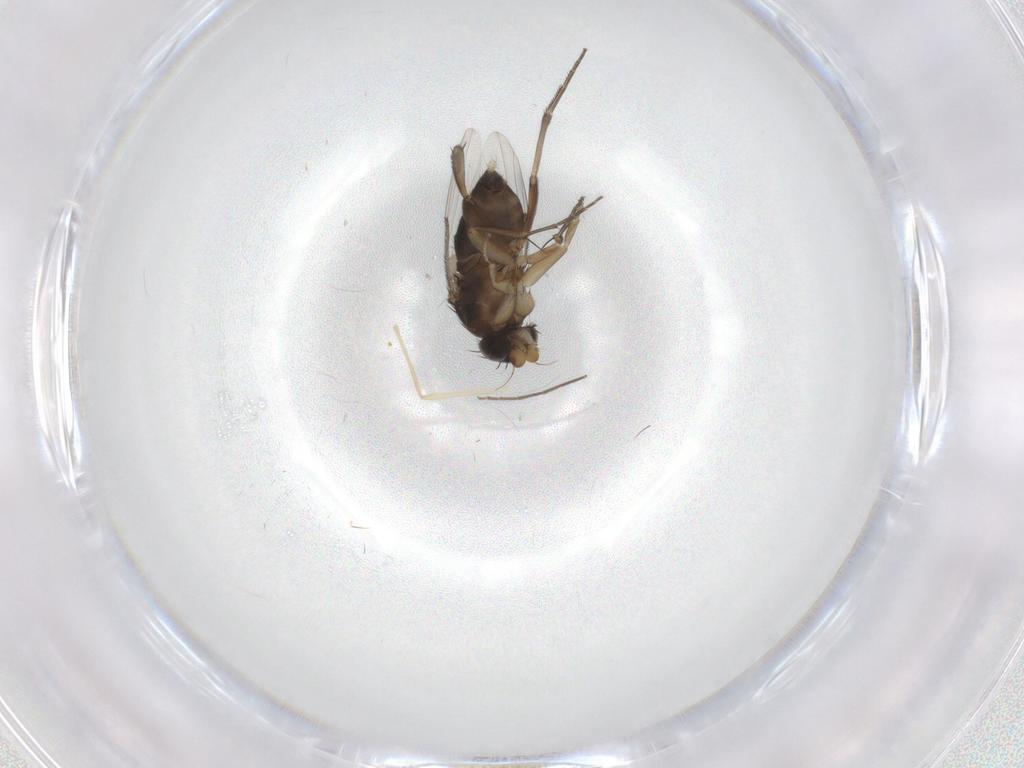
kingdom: Animalia
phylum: Arthropoda
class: Insecta
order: Diptera
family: Phoridae
